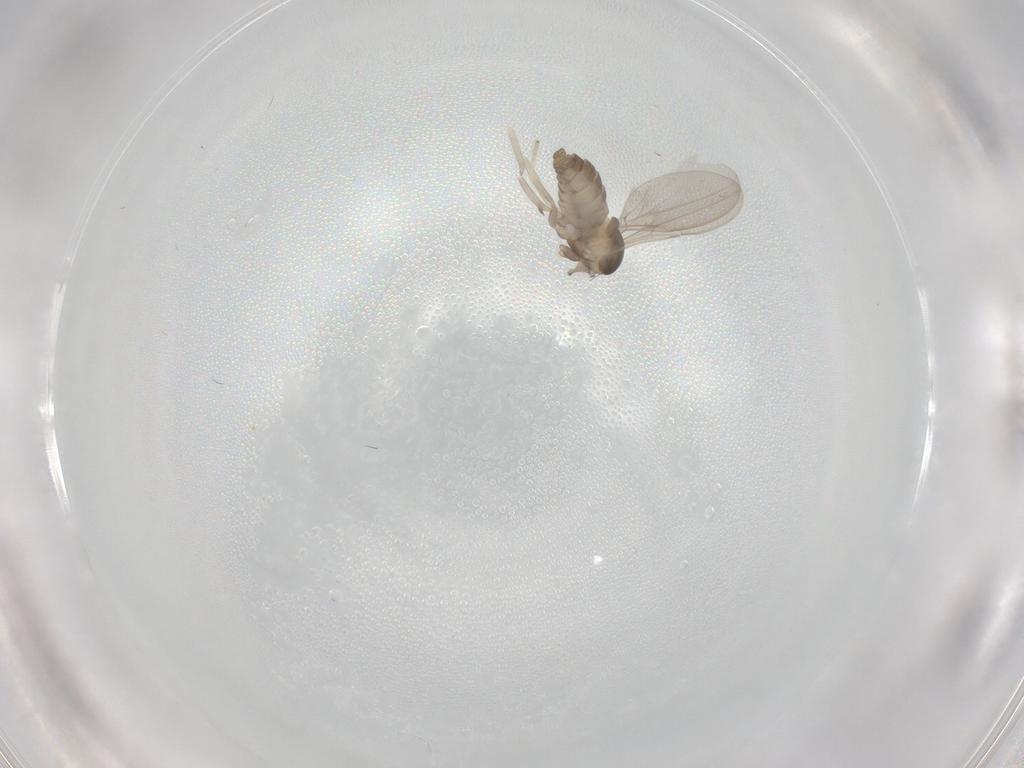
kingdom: Animalia
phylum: Arthropoda
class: Insecta
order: Diptera
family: Cecidomyiidae
